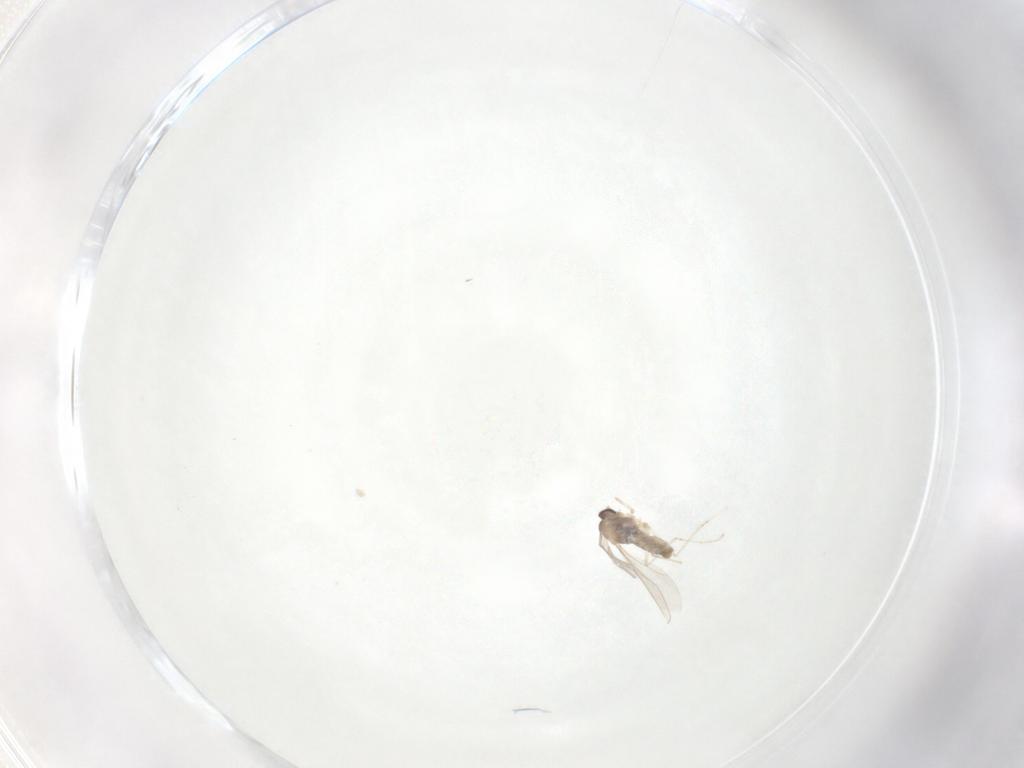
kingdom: Animalia
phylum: Arthropoda
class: Insecta
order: Diptera
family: Cecidomyiidae
